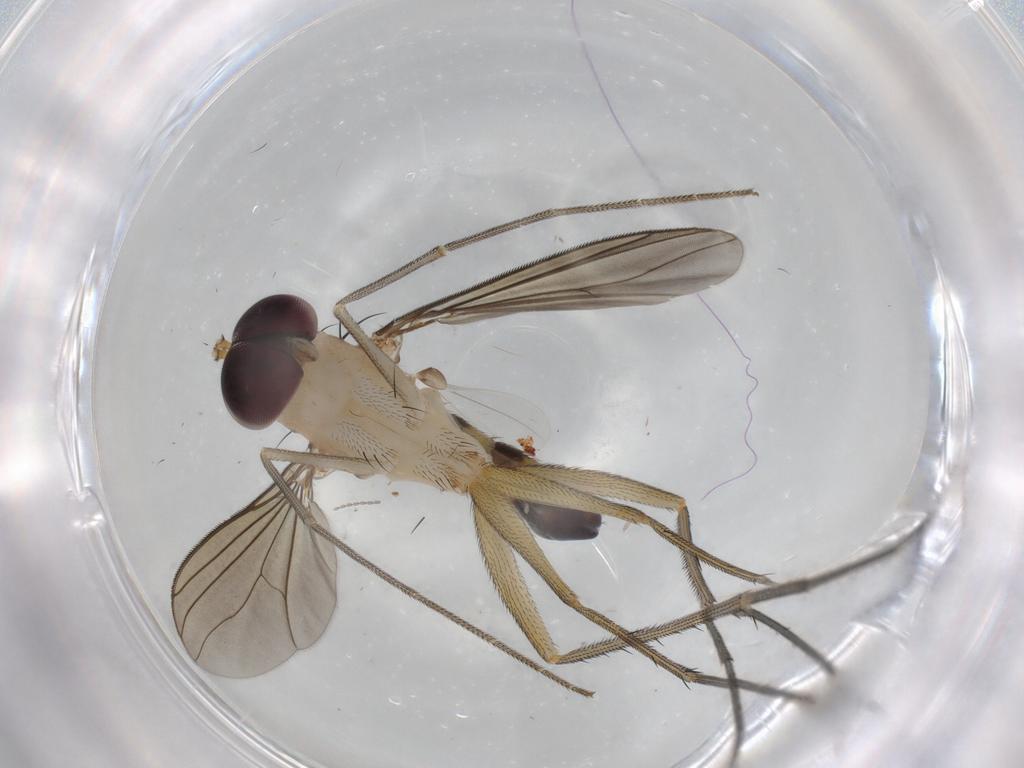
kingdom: Animalia
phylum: Arthropoda
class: Insecta
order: Diptera
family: Cecidomyiidae
